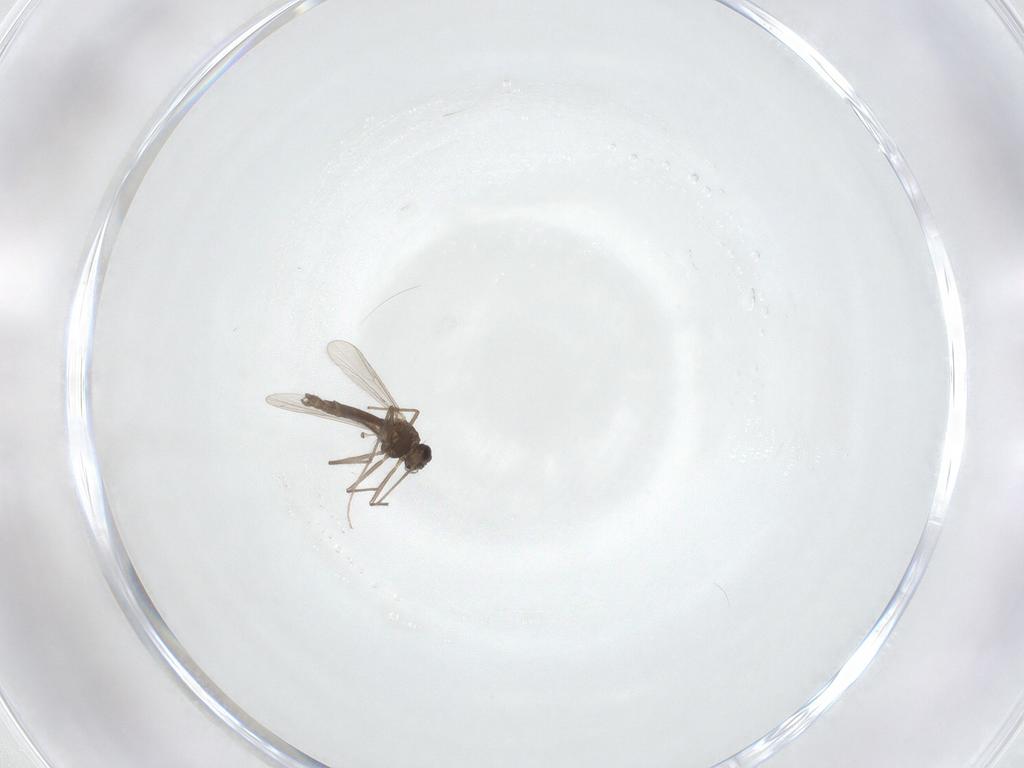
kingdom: Animalia
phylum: Arthropoda
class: Insecta
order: Diptera
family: Chironomidae
